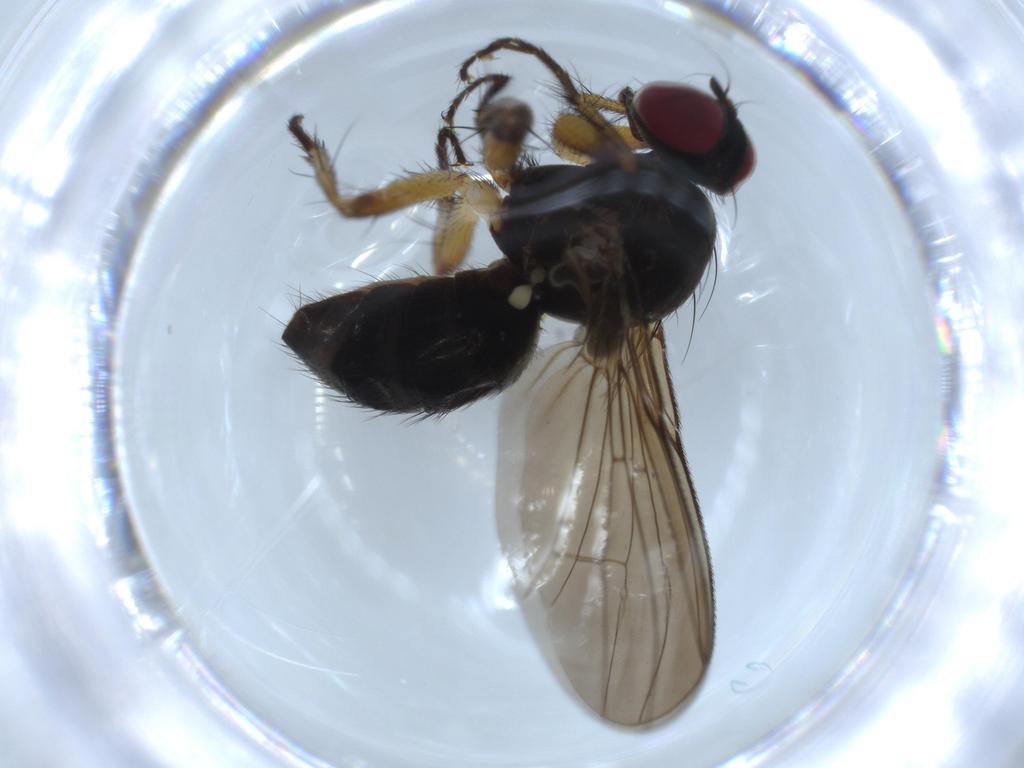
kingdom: Animalia
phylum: Arthropoda
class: Insecta
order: Diptera
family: Muscidae
